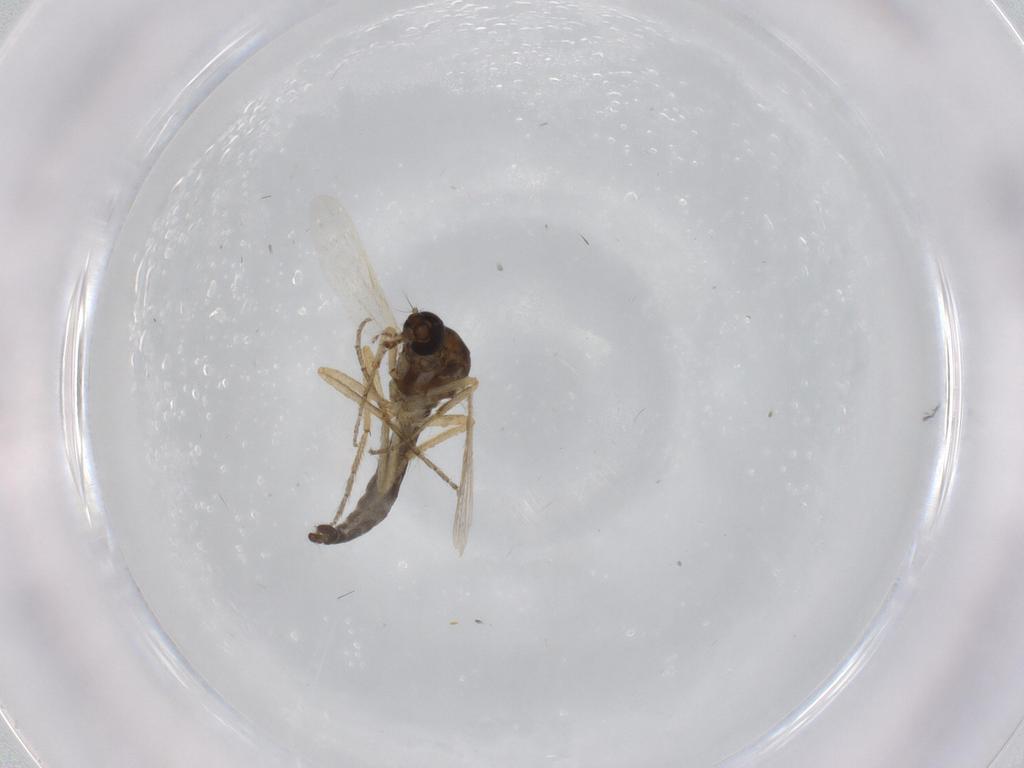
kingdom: Animalia
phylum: Arthropoda
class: Insecta
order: Diptera
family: Ceratopogonidae
